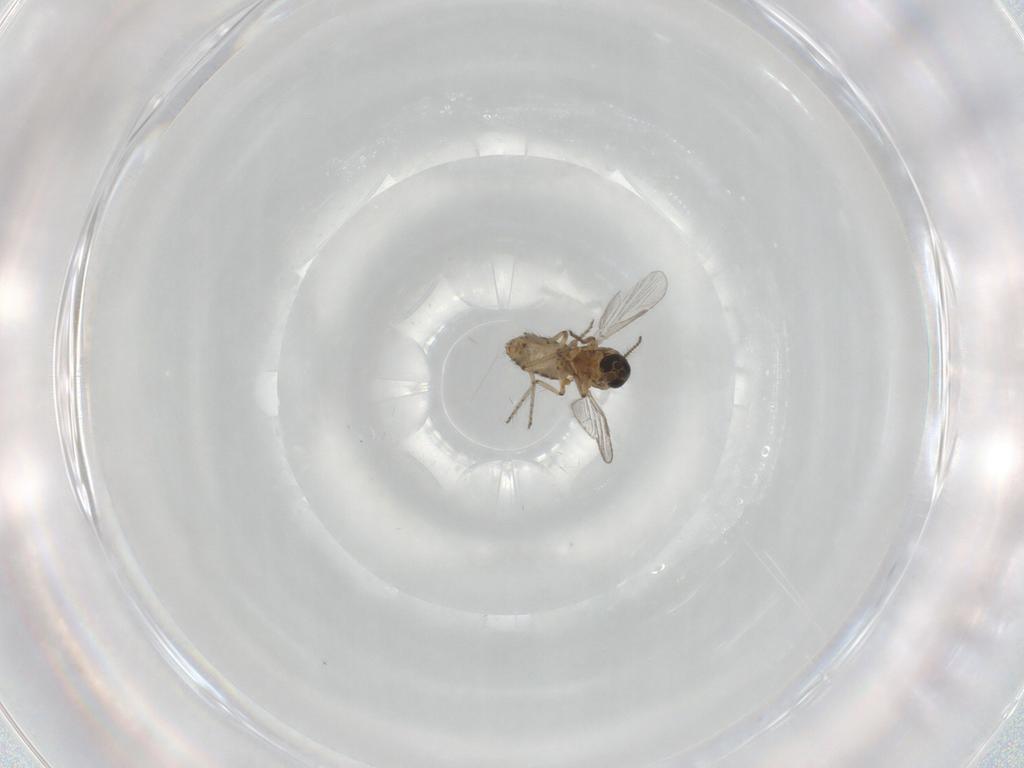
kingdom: Animalia
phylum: Arthropoda
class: Insecta
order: Diptera
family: Ceratopogonidae
